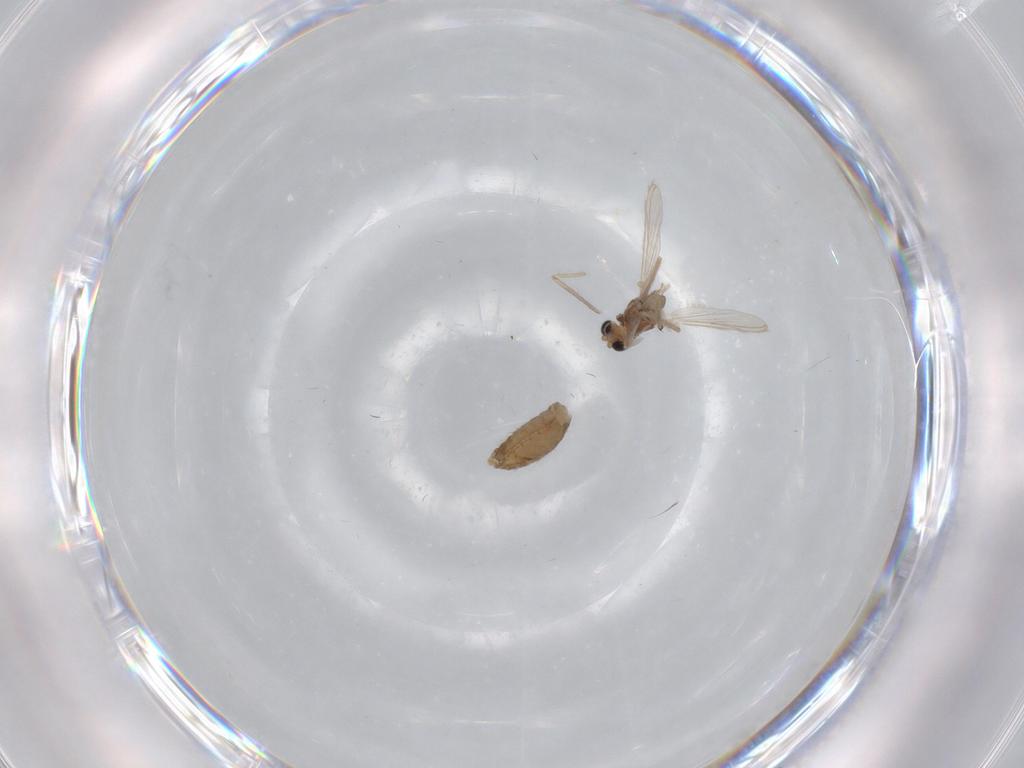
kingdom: Animalia
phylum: Arthropoda
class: Insecta
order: Diptera
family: Chironomidae
